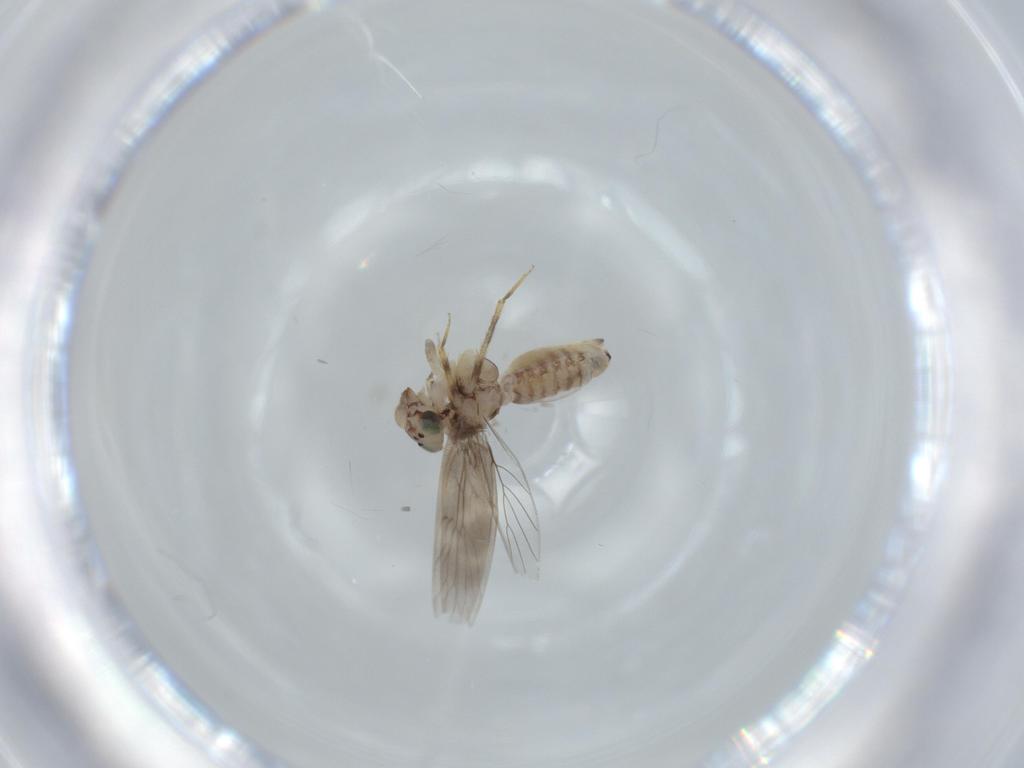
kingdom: Animalia
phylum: Arthropoda
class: Insecta
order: Psocodea
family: Lepidopsocidae
